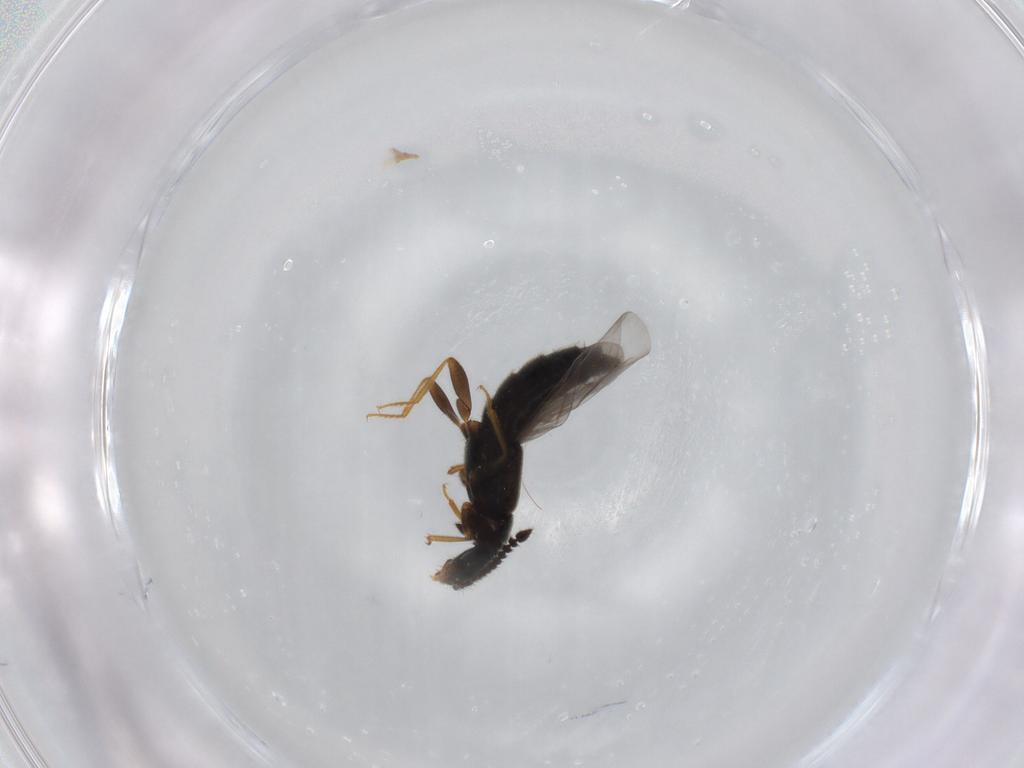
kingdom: Animalia
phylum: Arthropoda
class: Insecta
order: Coleoptera
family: Staphylinidae
